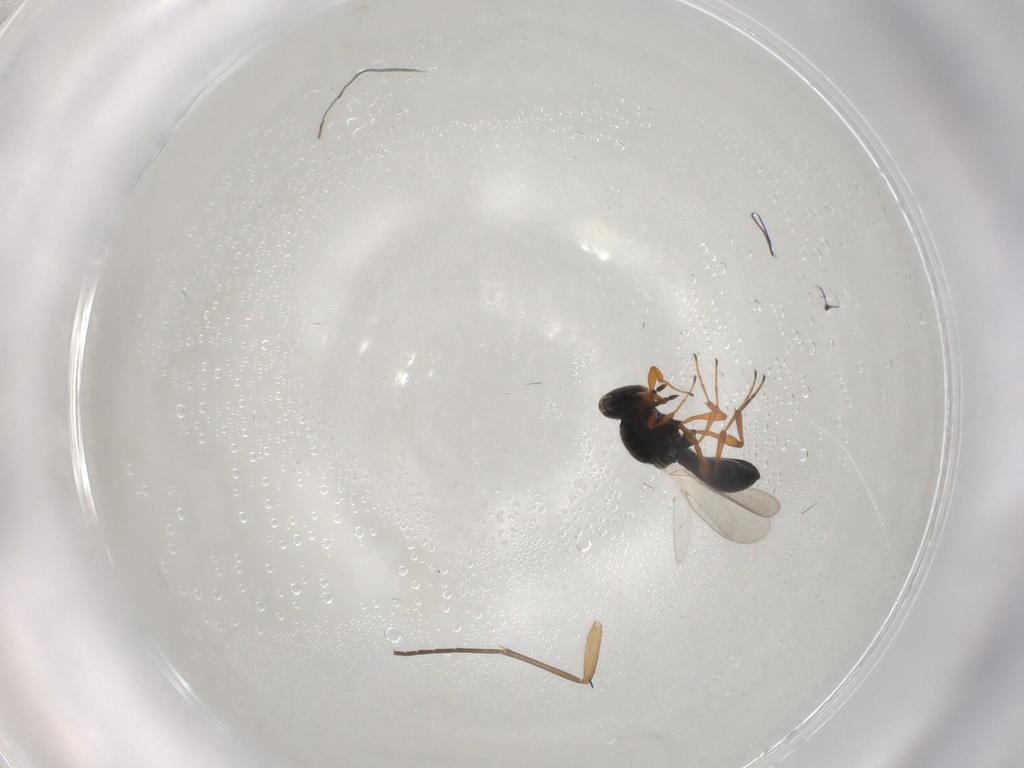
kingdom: Animalia
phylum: Arthropoda
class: Insecta
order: Hymenoptera
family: Platygastridae
